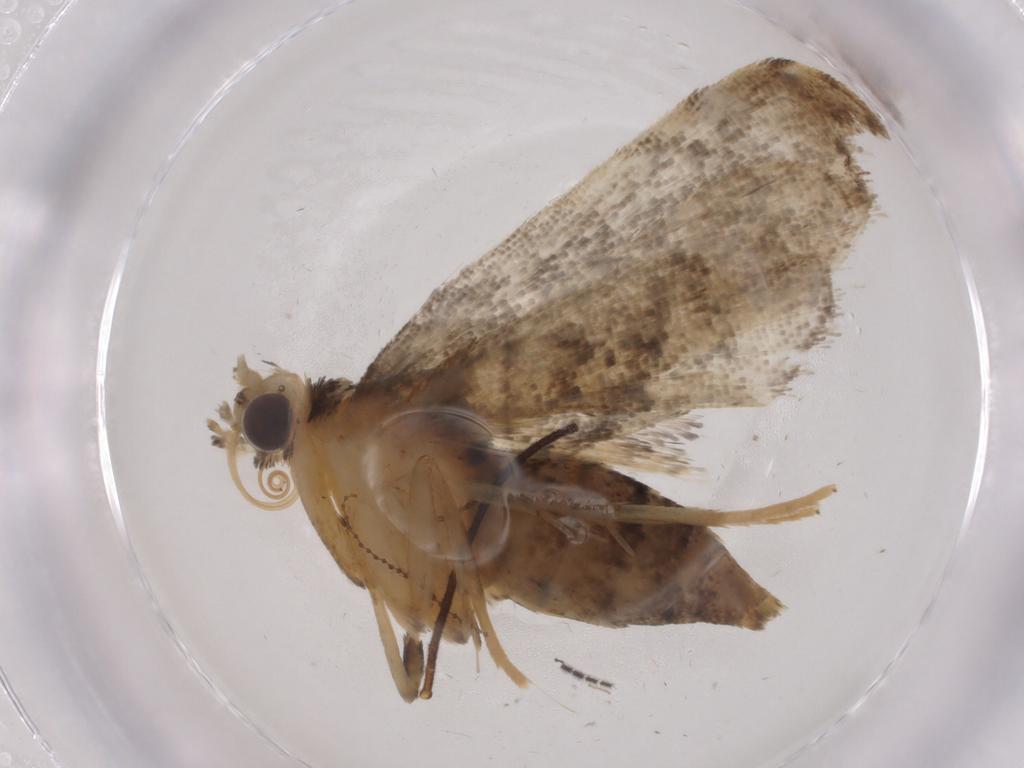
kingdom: Animalia
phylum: Arthropoda
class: Insecta
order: Lepidoptera
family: Crambidae
